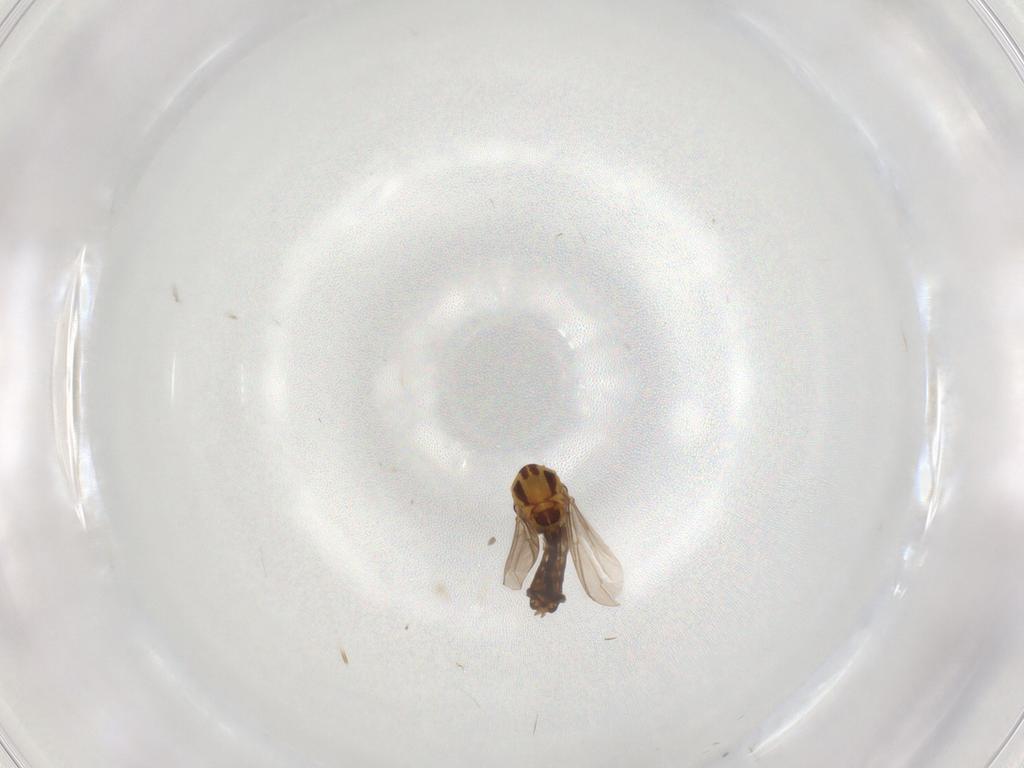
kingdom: Animalia
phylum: Arthropoda
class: Insecta
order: Diptera
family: Chironomidae
